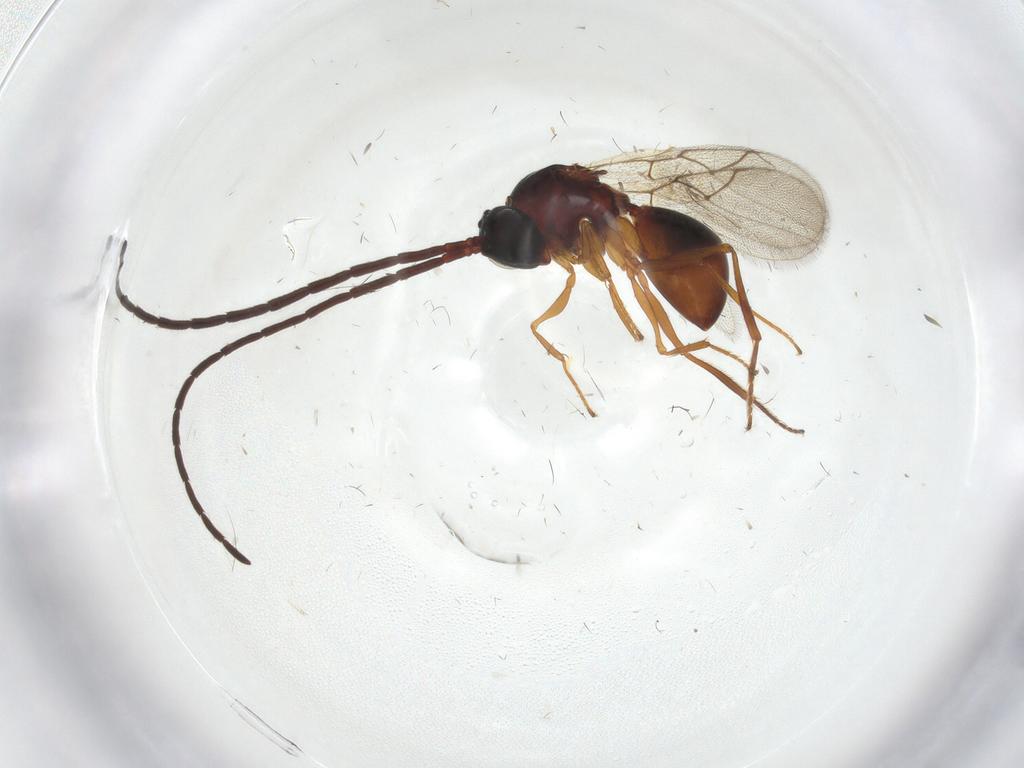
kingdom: Animalia
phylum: Arthropoda
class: Insecta
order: Hymenoptera
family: Figitidae
